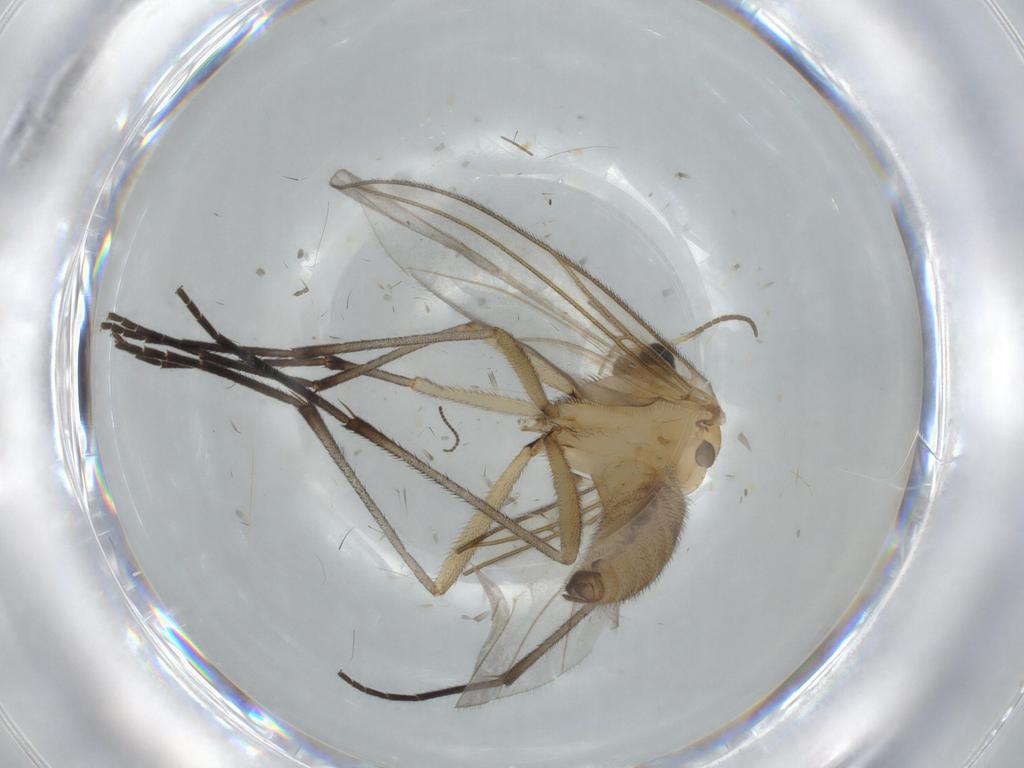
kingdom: Animalia
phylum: Arthropoda
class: Insecta
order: Diptera
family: Sciaridae
